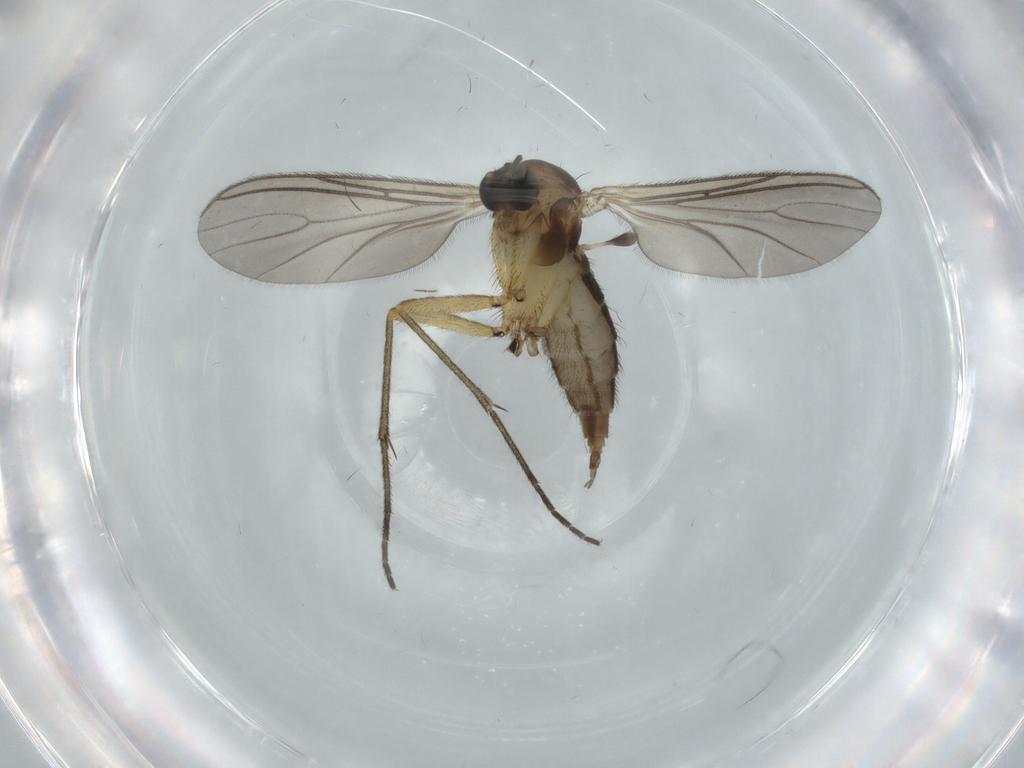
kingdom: Animalia
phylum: Arthropoda
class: Insecta
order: Diptera
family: Sciaridae
